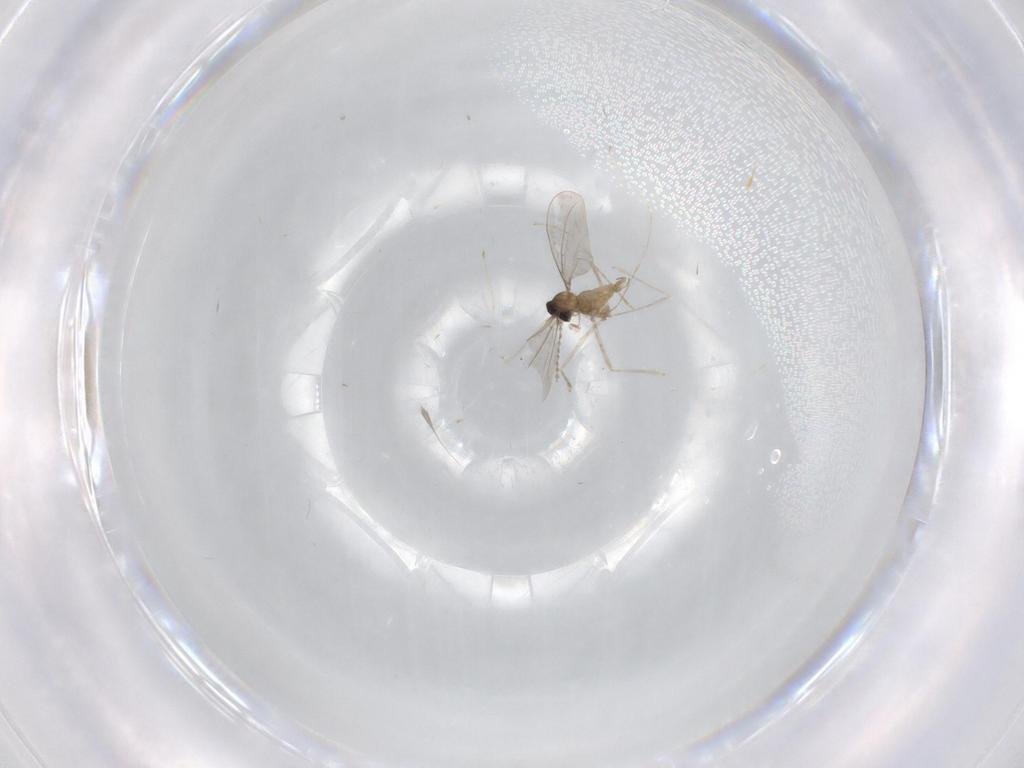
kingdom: Animalia
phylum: Arthropoda
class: Insecta
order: Diptera
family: Cecidomyiidae
